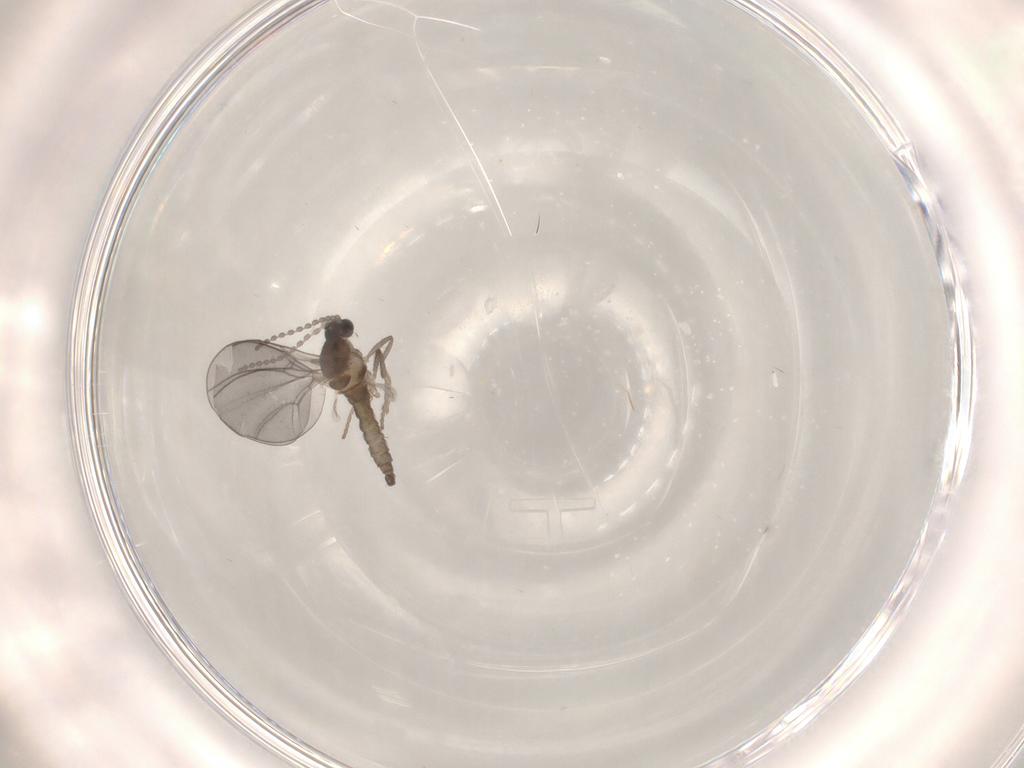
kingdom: Animalia
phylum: Arthropoda
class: Insecta
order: Diptera
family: Cecidomyiidae
